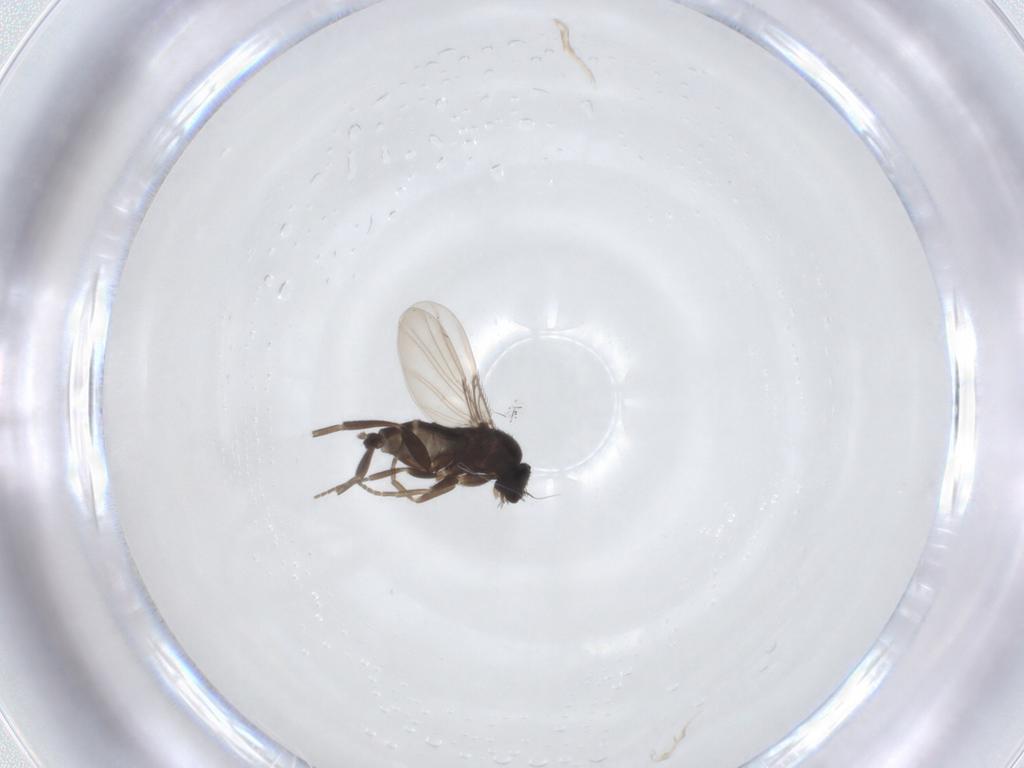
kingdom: Animalia
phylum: Arthropoda
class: Insecta
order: Diptera
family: Phoridae
